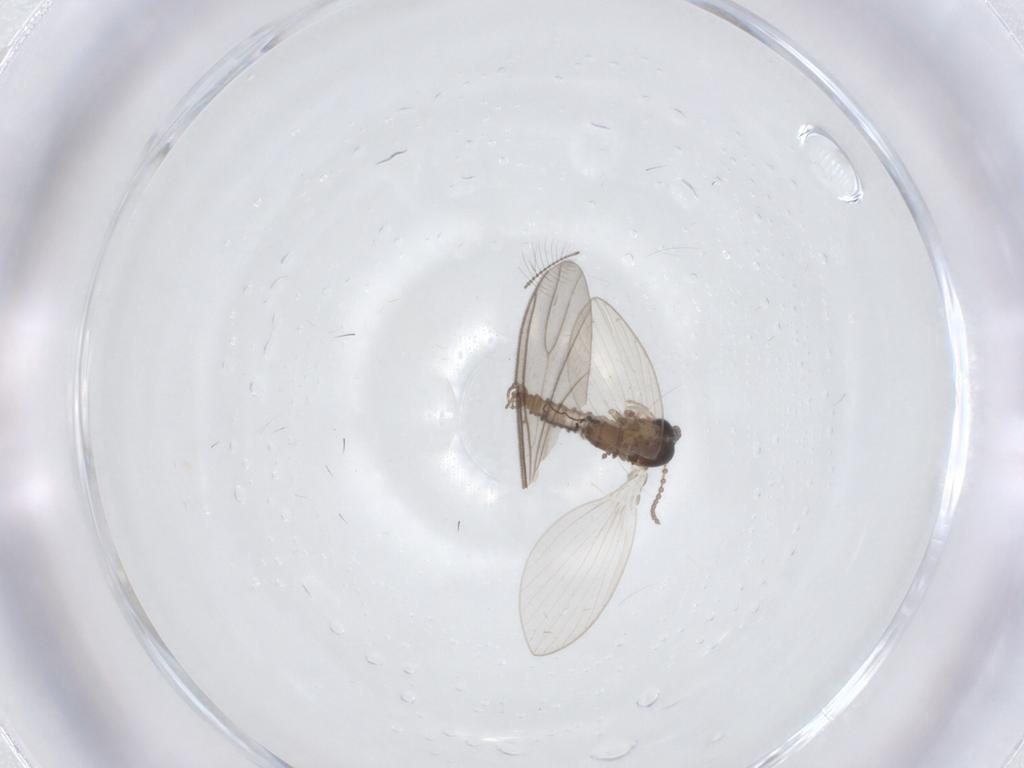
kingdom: Animalia
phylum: Arthropoda
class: Insecta
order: Diptera
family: Psychodidae
